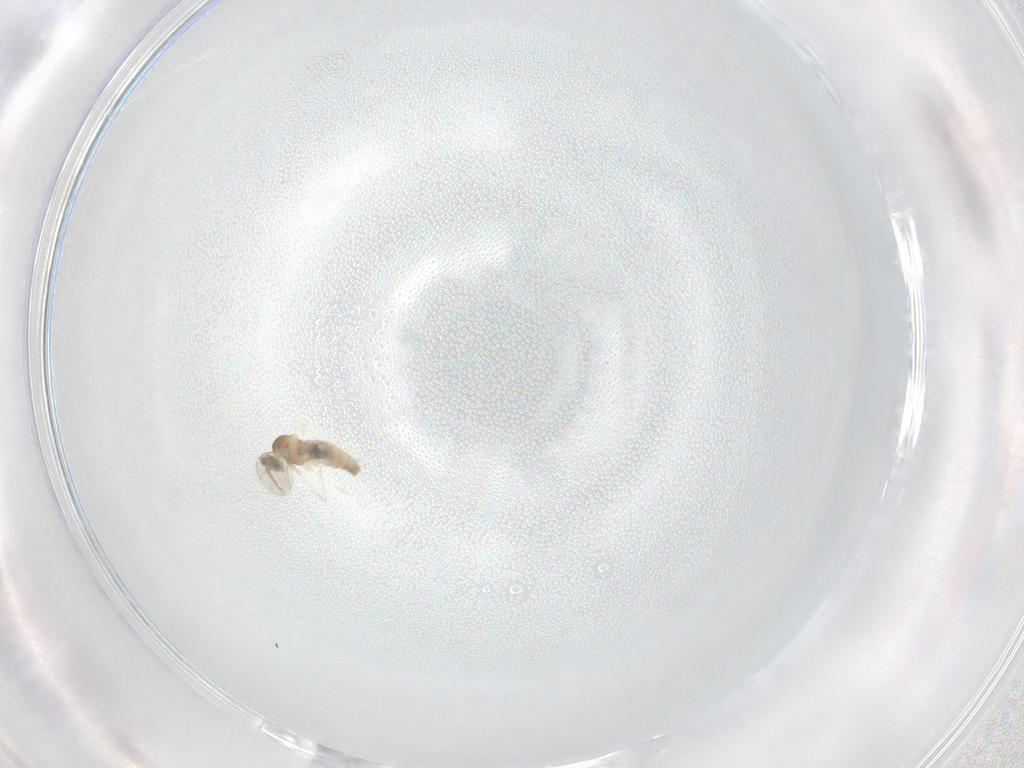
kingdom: Animalia
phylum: Arthropoda
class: Insecta
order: Diptera
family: Cecidomyiidae
